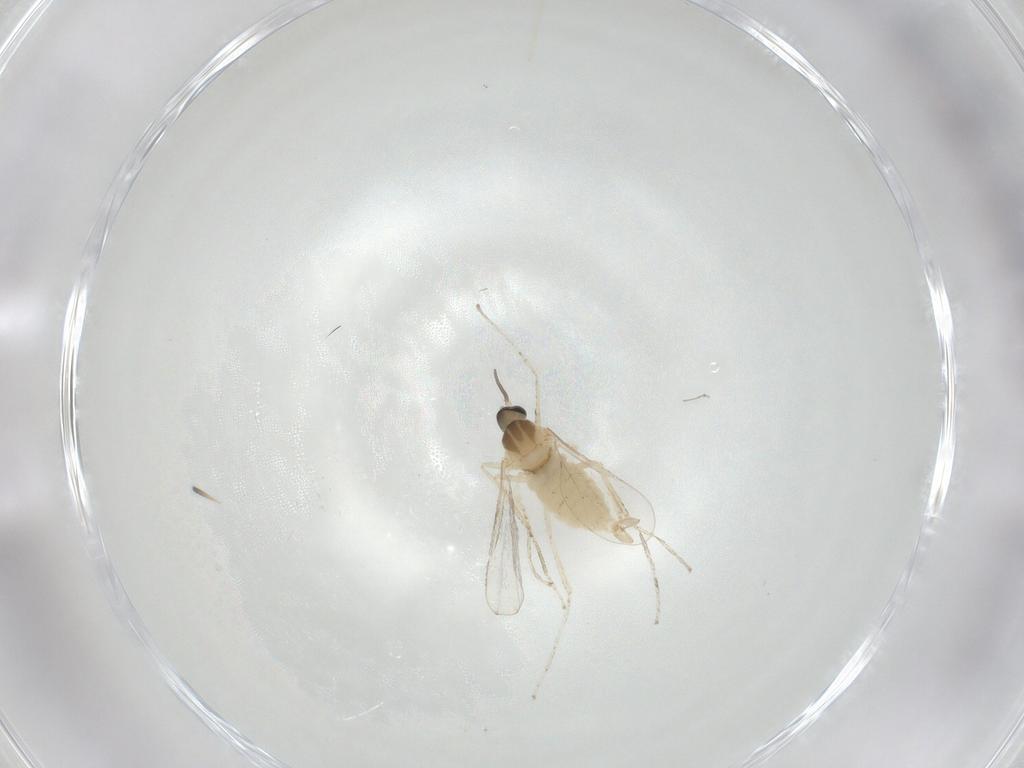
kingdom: Animalia
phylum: Arthropoda
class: Insecta
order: Diptera
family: Cecidomyiidae
